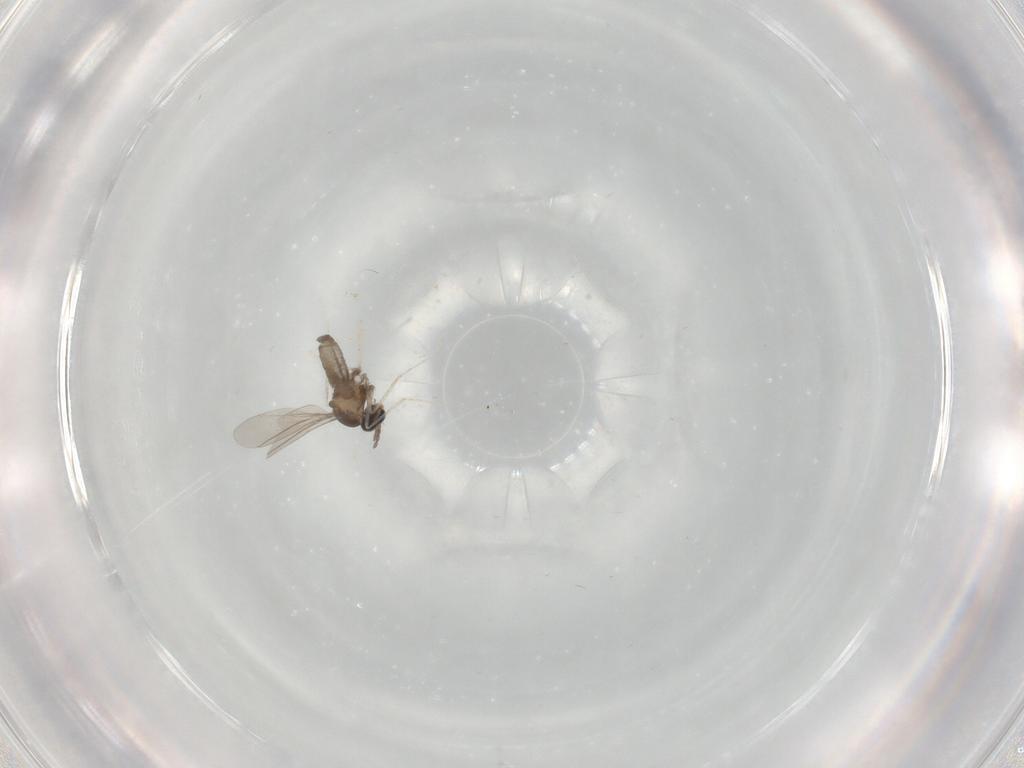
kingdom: Animalia
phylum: Arthropoda
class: Insecta
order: Diptera
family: Cecidomyiidae
